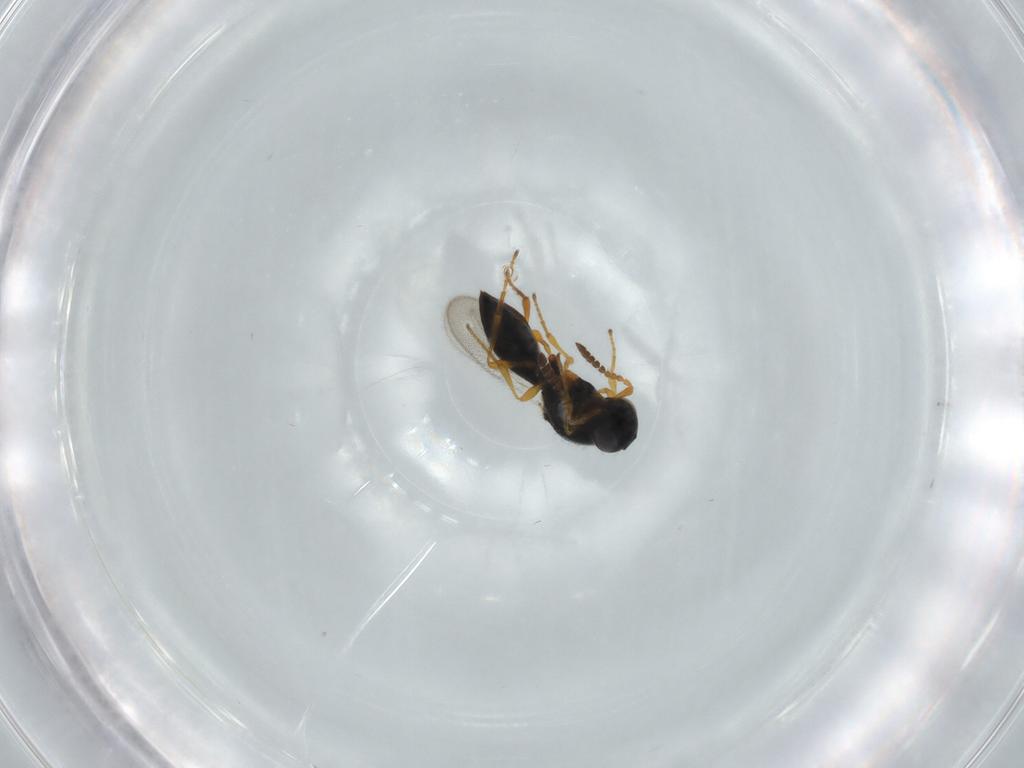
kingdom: Animalia
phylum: Arthropoda
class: Insecta
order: Hymenoptera
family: Platygastridae
